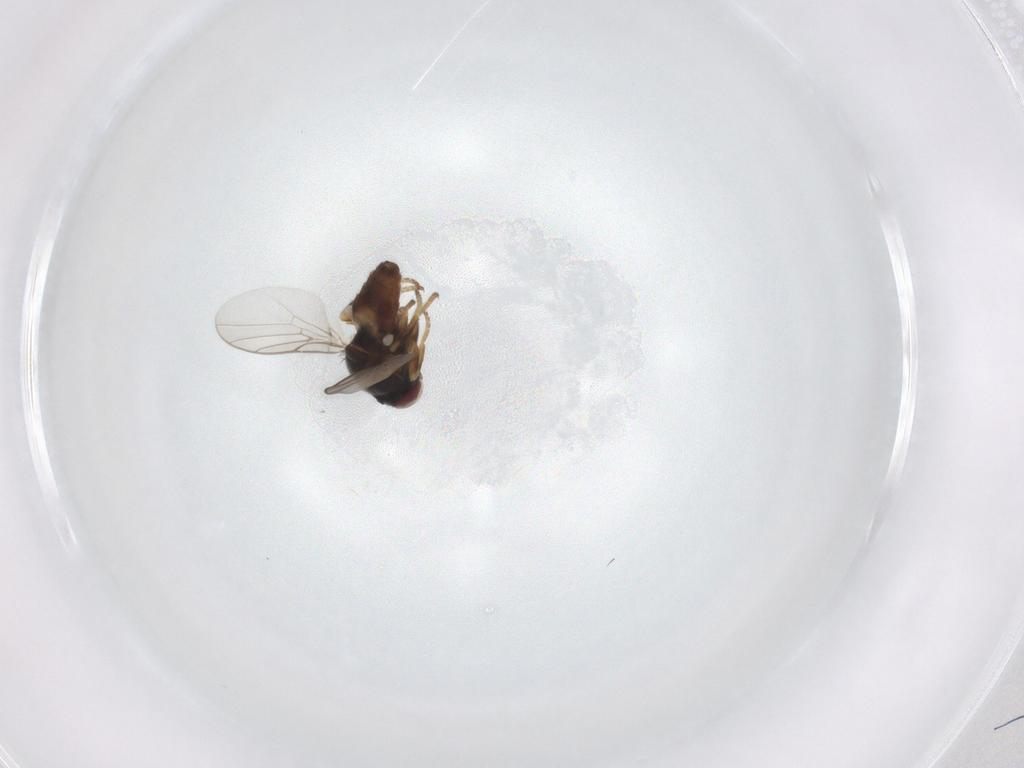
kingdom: Animalia
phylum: Arthropoda
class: Insecta
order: Diptera
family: Chloropidae
